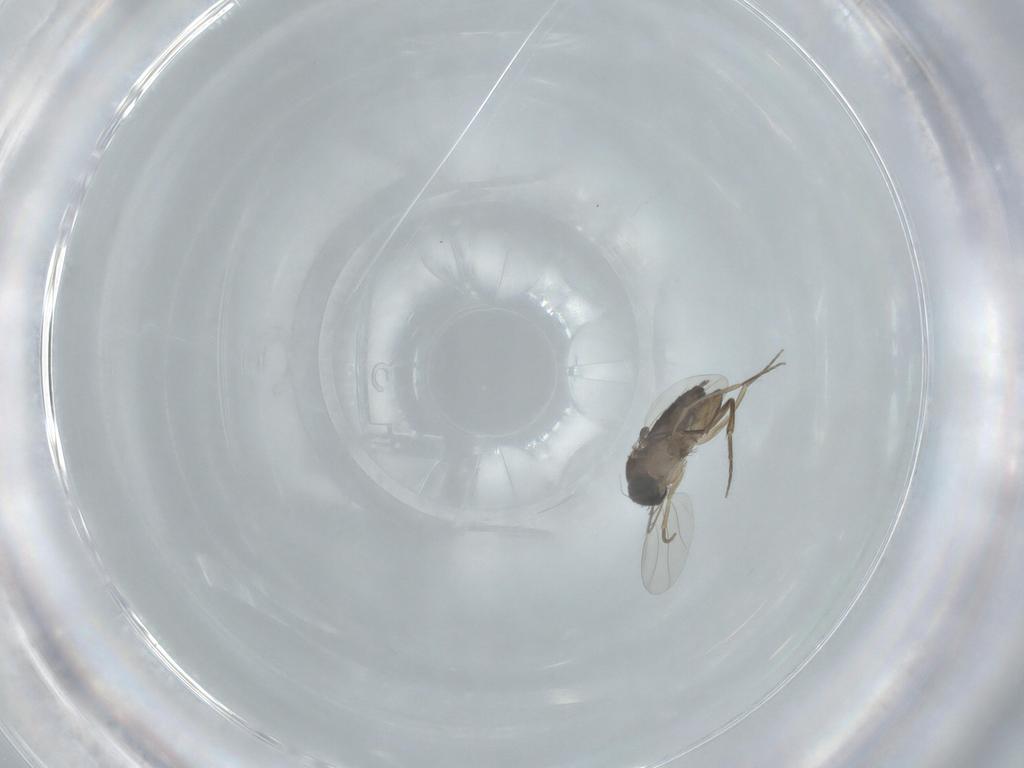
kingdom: Animalia
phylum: Arthropoda
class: Insecta
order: Diptera
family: Phoridae
